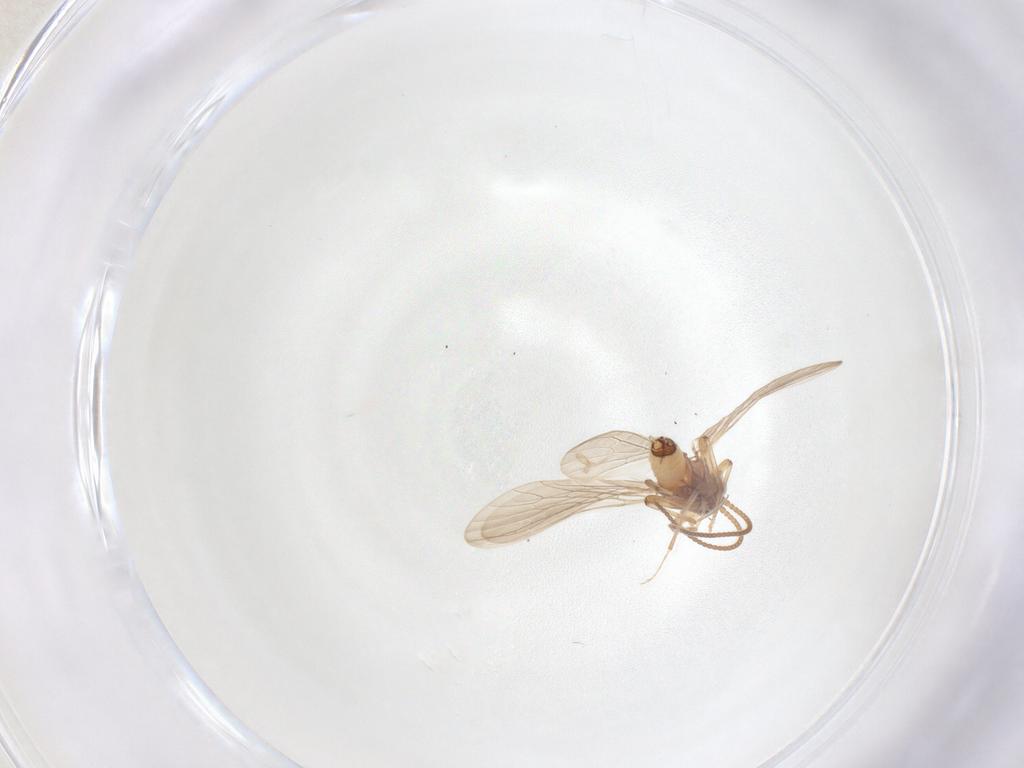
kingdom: Animalia
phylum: Arthropoda
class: Insecta
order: Neuroptera
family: Coniopterygidae
